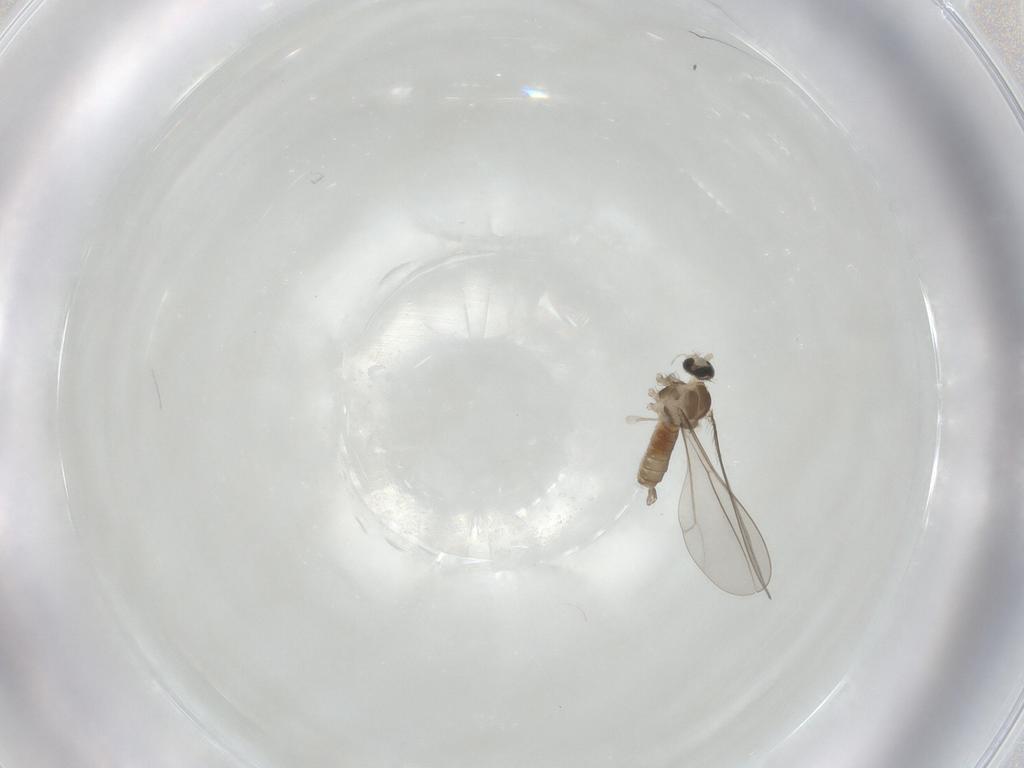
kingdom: Animalia
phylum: Arthropoda
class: Insecta
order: Diptera
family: Cecidomyiidae
